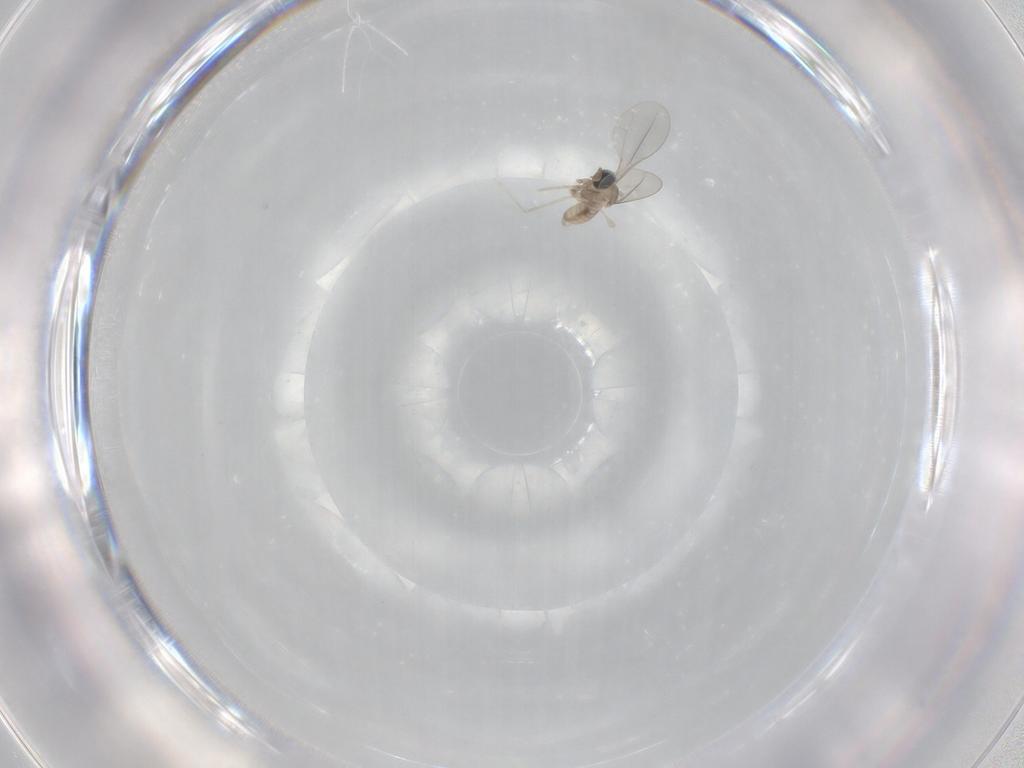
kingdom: Animalia
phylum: Arthropoda
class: Insecta
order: Diptera
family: Cecidomyiidae
